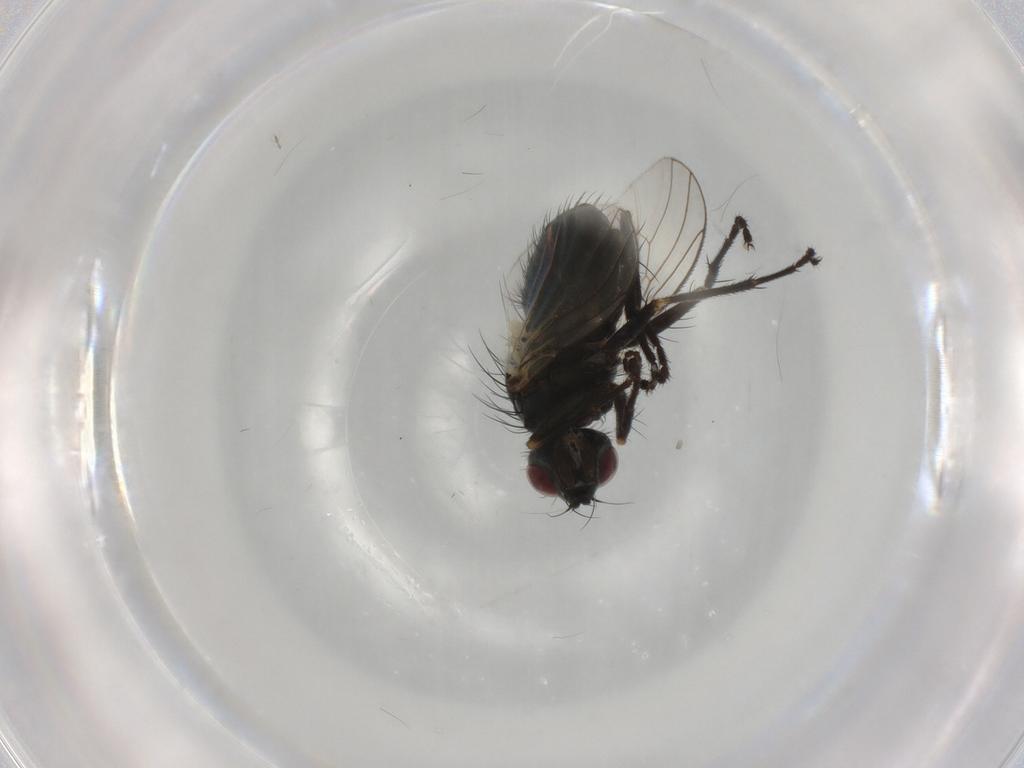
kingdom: Animalia
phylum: Arthropoda
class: Insecta
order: Diptera
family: Muscidae
